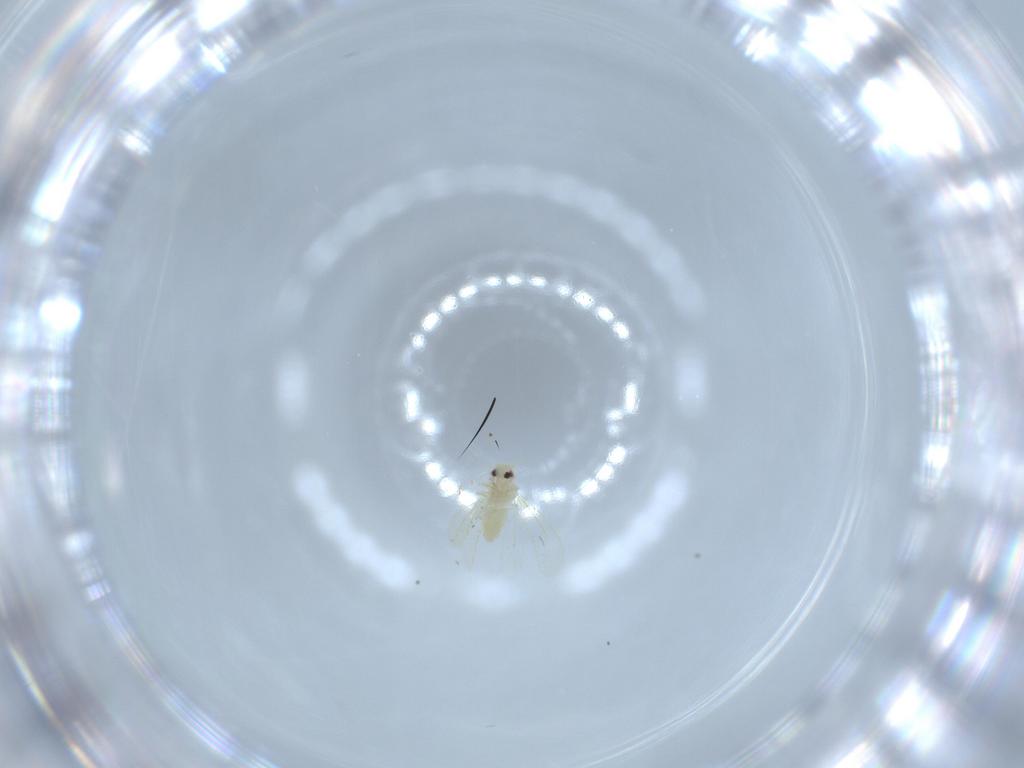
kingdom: Animalia
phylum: Arthropoda
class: Insecta
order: Hemiptera
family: Aleyrodidae
